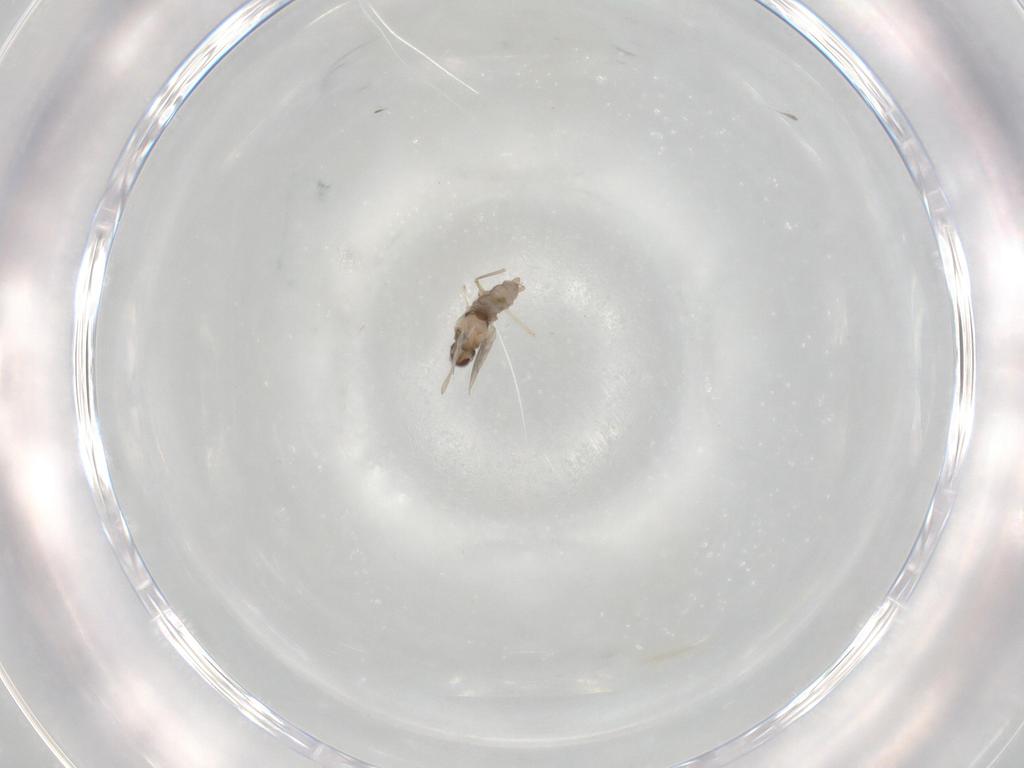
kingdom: Animalia
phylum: Arthropoda
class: Insecta
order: Diptera
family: Cecidomyiidae
